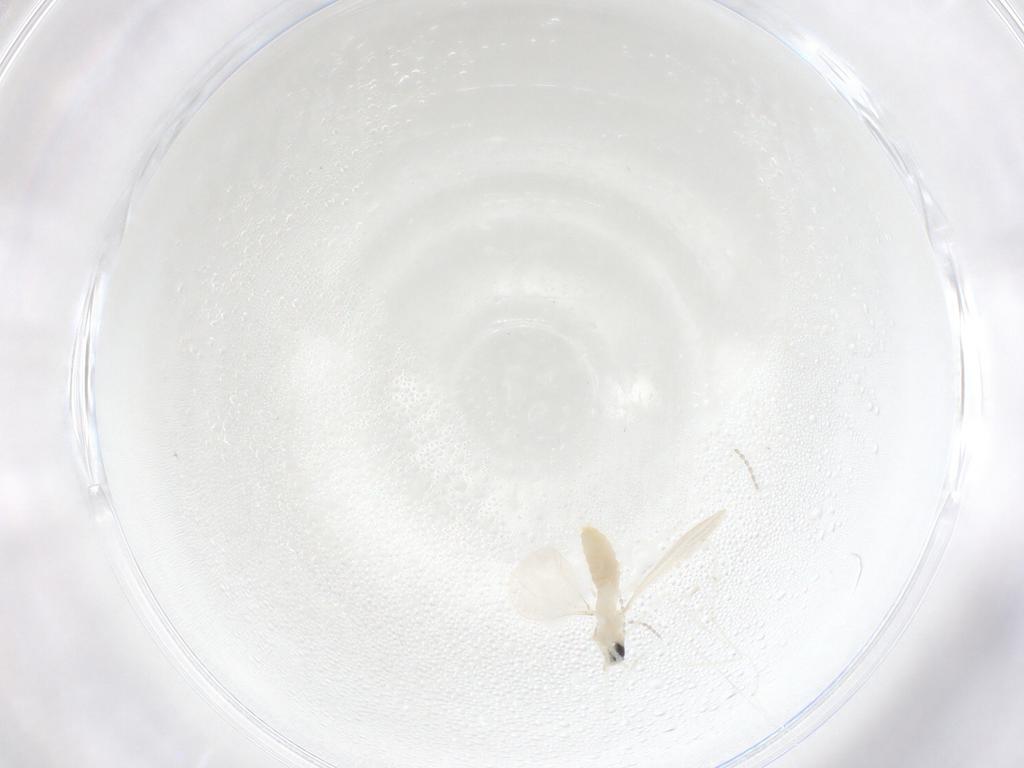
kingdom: Animalia
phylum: Arthropoda
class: Insecta
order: Diptera
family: Cecidomyiidae
